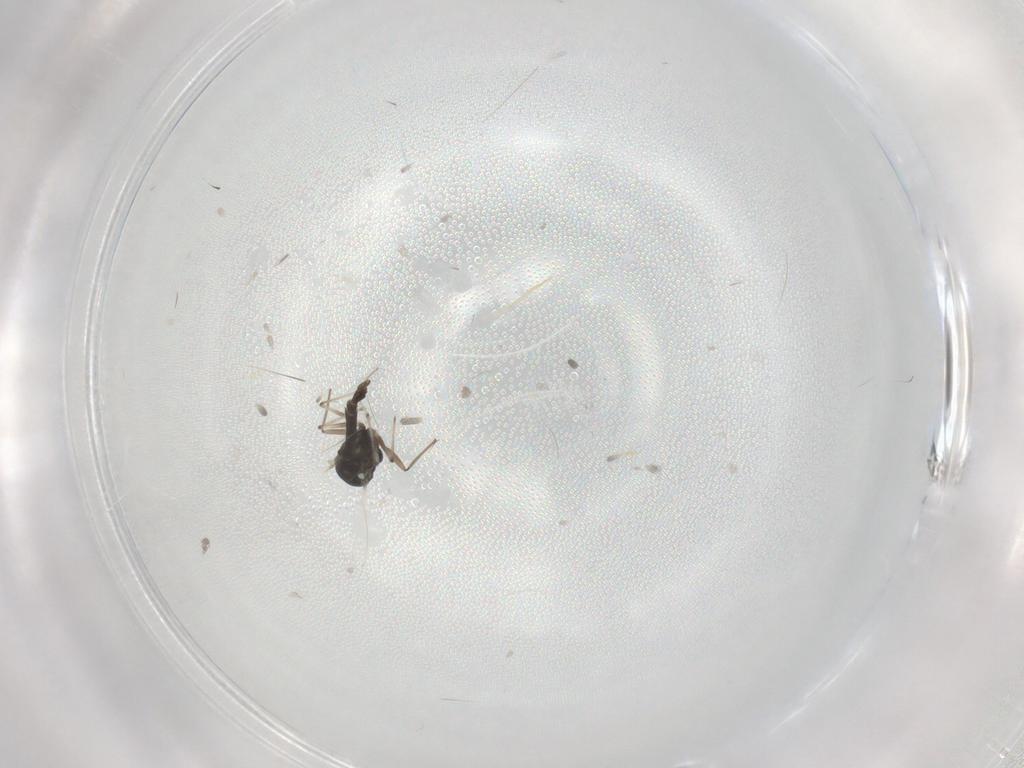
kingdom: Animalia
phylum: Arthropoda
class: Insecta
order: Diptera
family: Chironomidae
